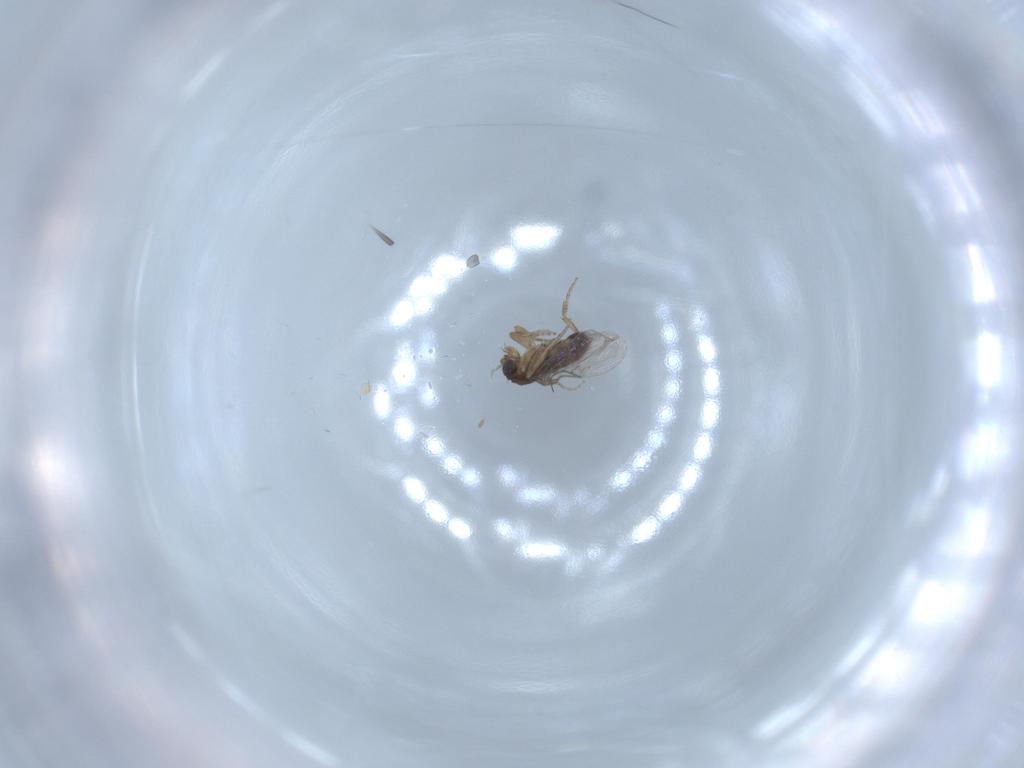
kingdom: Animalia
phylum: Arthropoda
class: Insecta
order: Diptera
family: Phoridae
